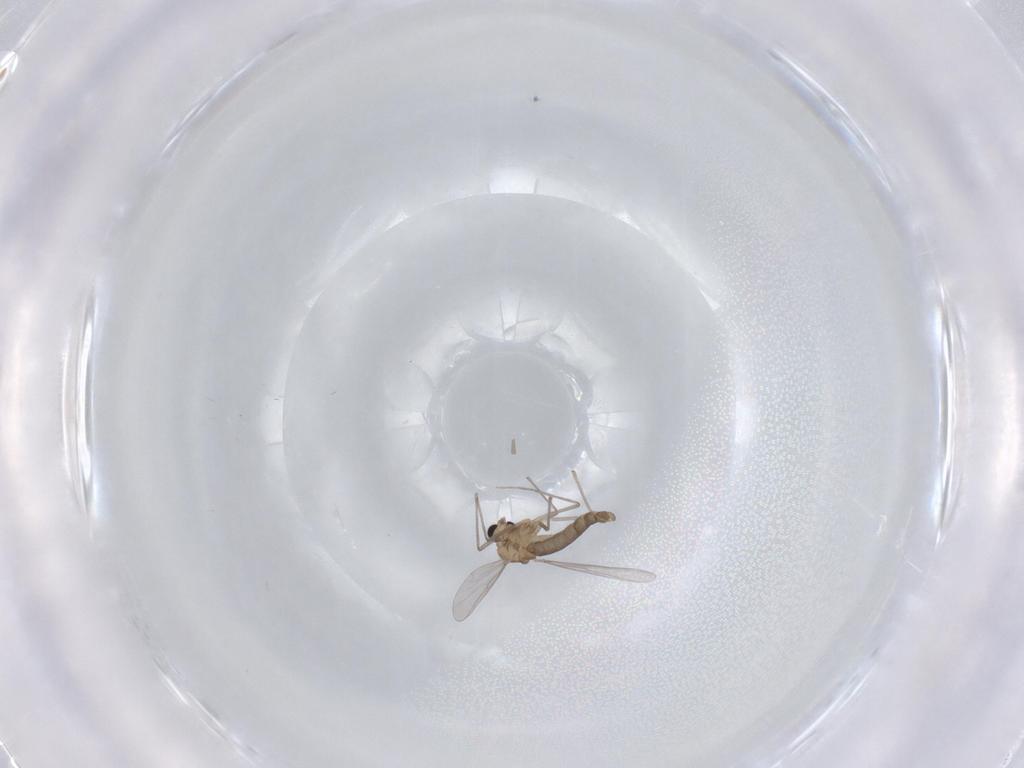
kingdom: Animalia
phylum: Arthropoda
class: Insecta
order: Diptera
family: Chironomidae
